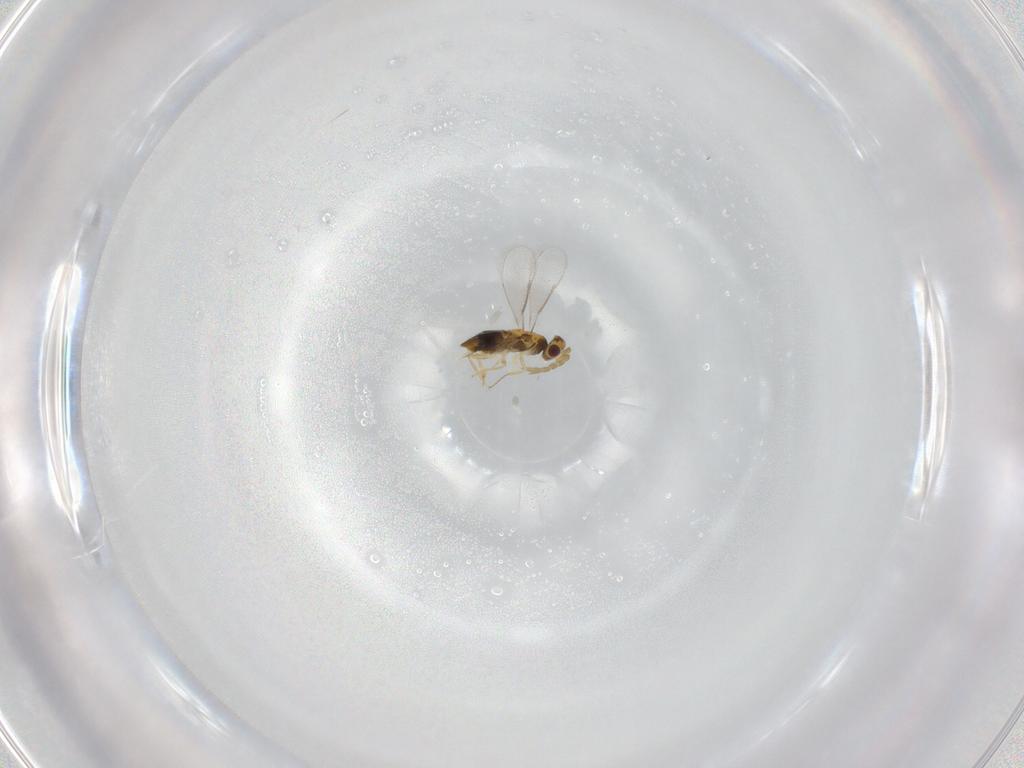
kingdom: Animalia
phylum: Arthropoda
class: Insecta
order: Hymenoptera
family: Aphelinidae
